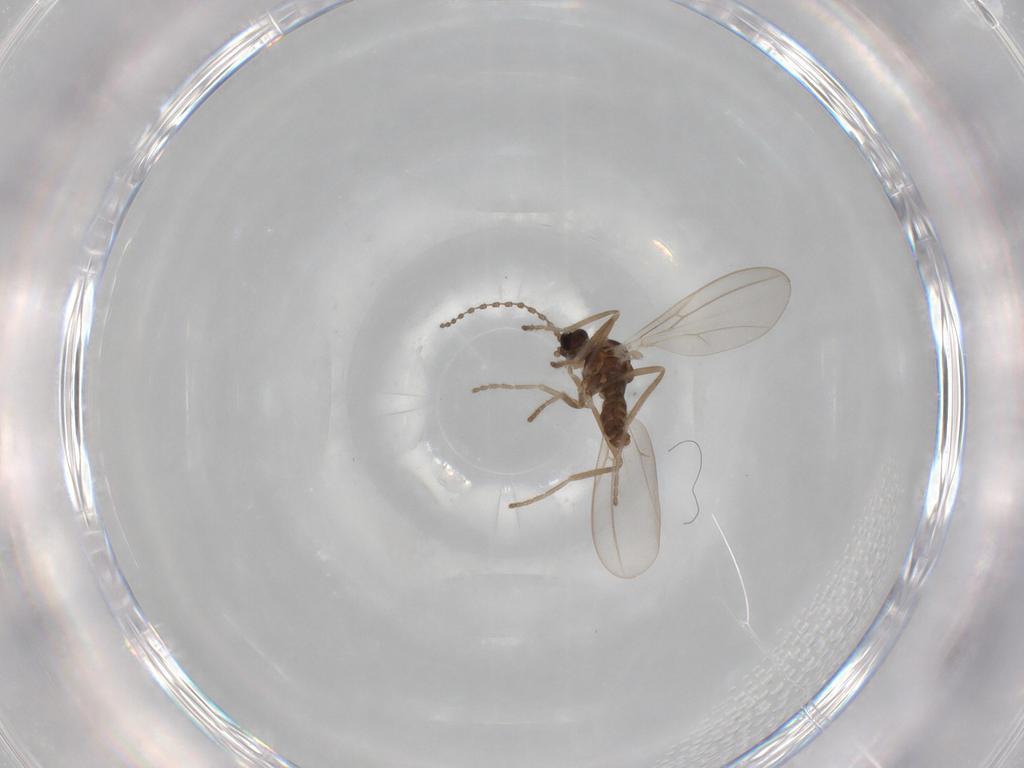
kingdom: Animalia
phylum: Arthropoda
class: Insecta
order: Diptera
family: Cecidomyiidae
